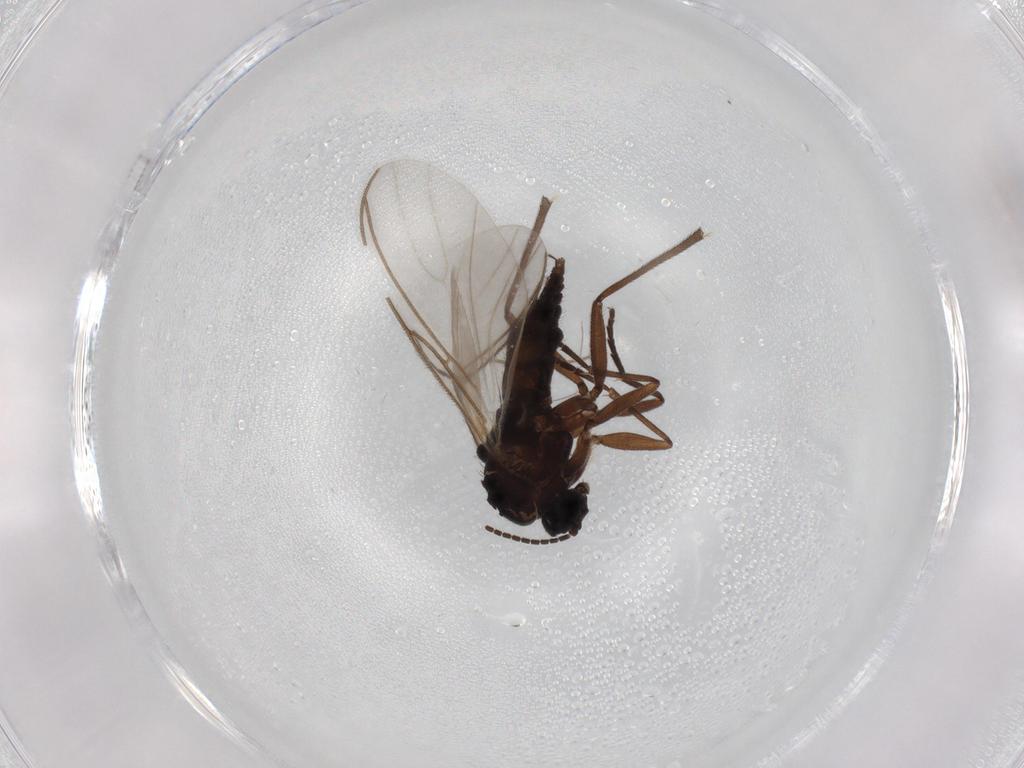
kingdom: Animalia
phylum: Arthropoda
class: Insecta
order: Diptera
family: Sciaridae
